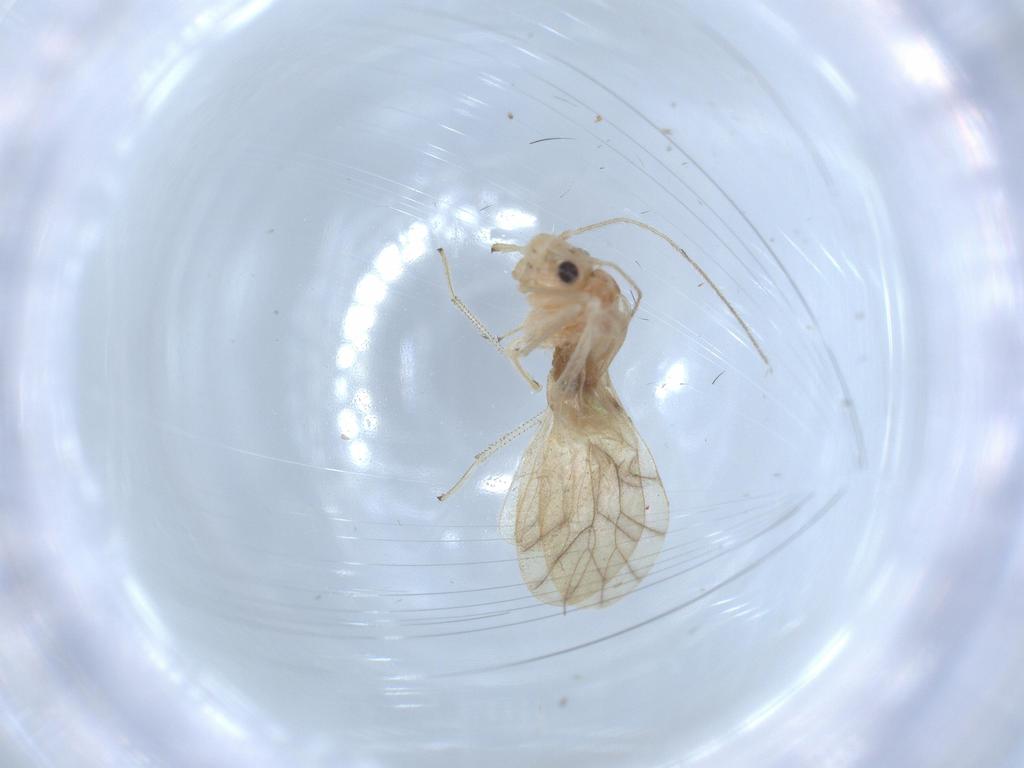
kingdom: Animalia
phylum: Arthropoda
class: Insecta
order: Psocodea
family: Caeciliusidae
